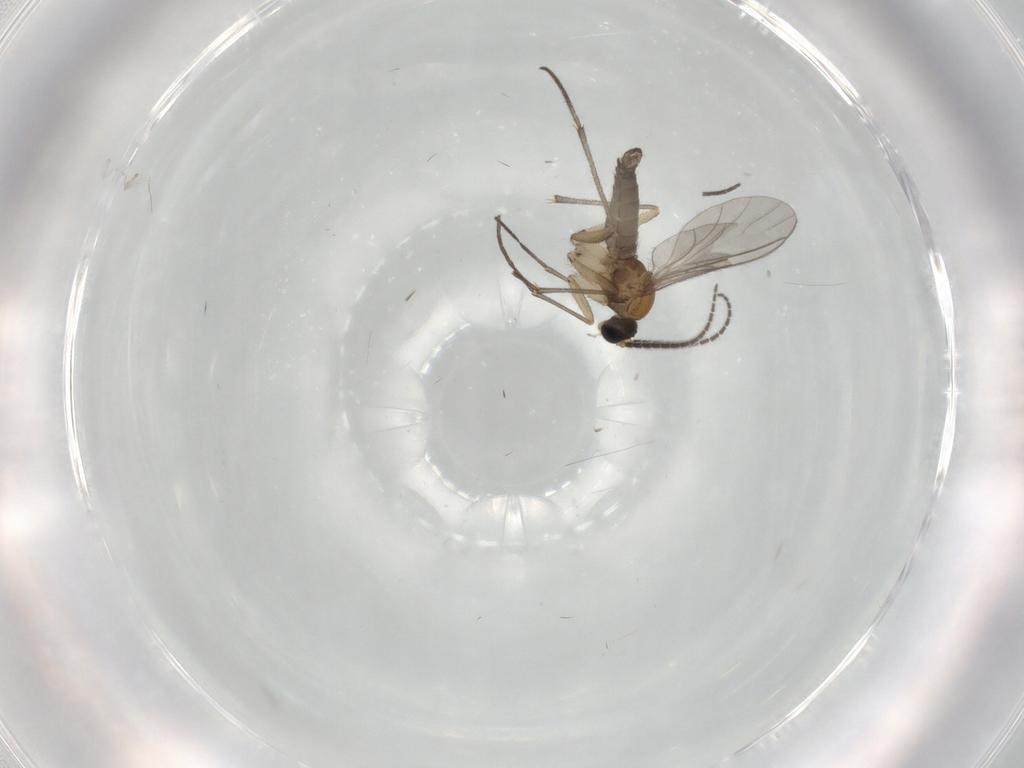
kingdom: Animalia
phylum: Arthropoda
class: Insecta
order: Diptera
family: Sciaridae
